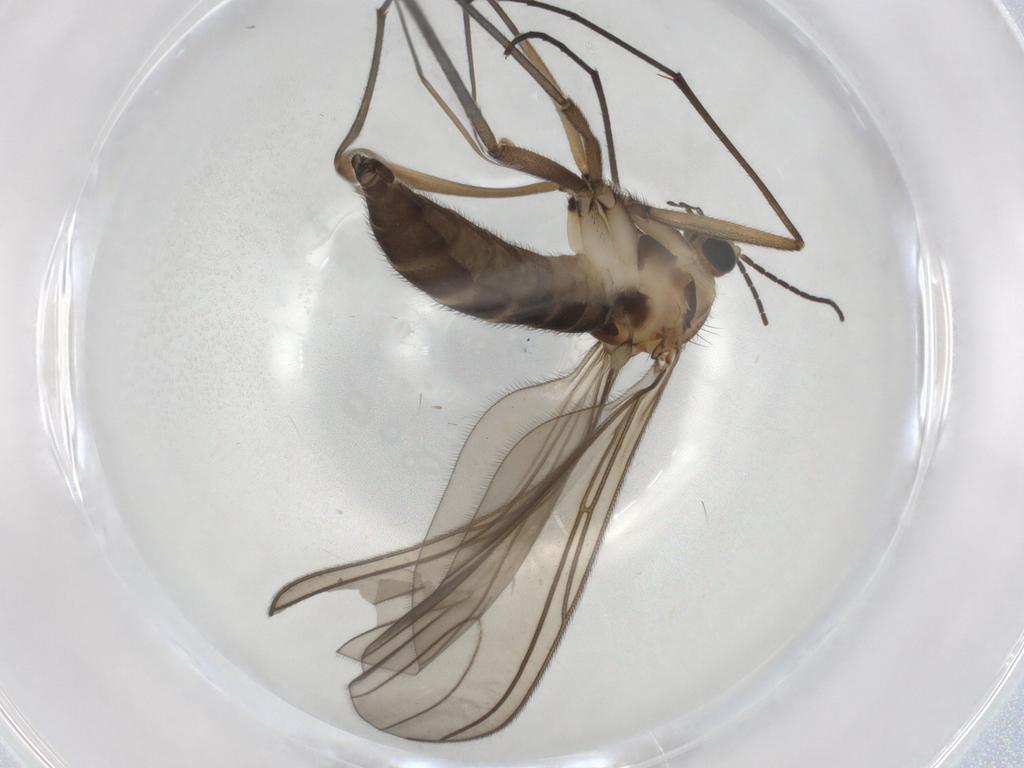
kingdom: Animalia
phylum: Arthropoda
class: Insecta
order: Diptera
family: Sciaridae
